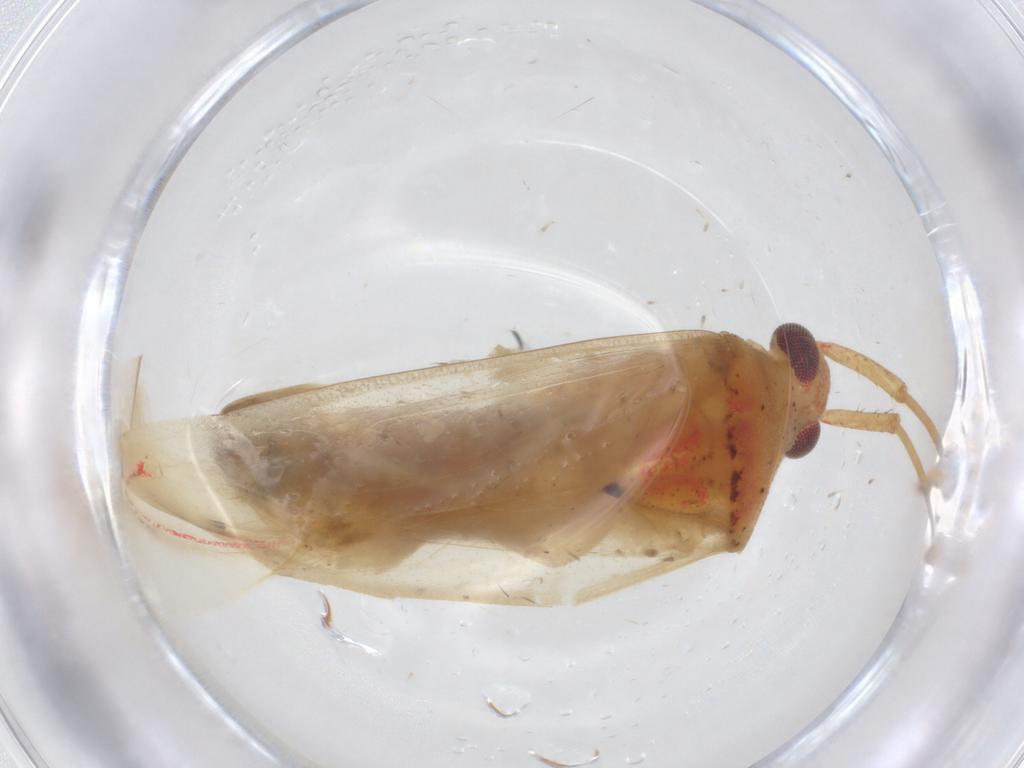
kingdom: Animalia
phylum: Arthropoda
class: Insecta
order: Hemiptera
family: Miridae
